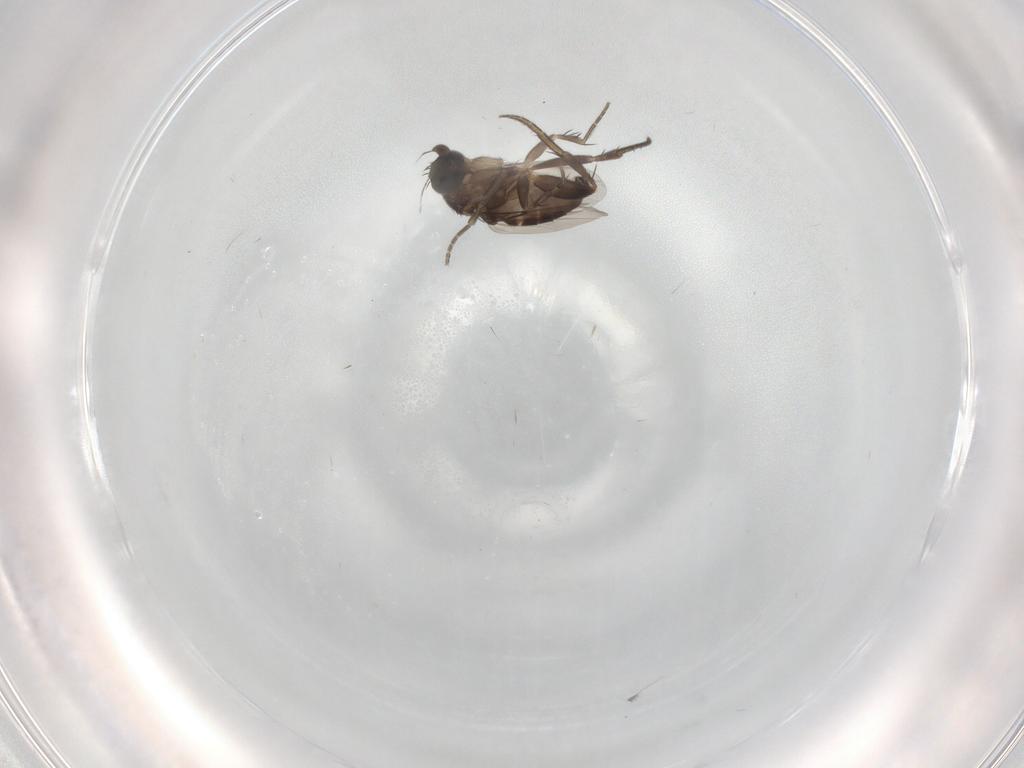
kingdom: Animalia
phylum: Arthropoda
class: Insecta
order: Diptera
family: Phoridae
